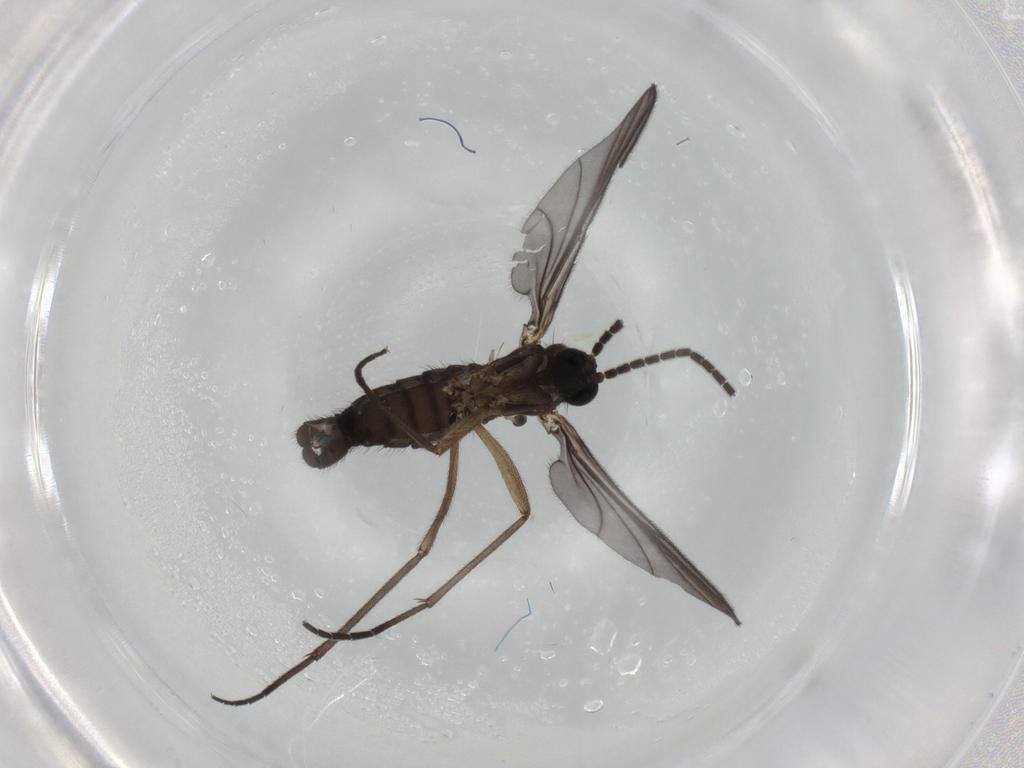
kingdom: Animalia
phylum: Arthropoda
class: Insecta
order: Diptera
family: Sciaridae
